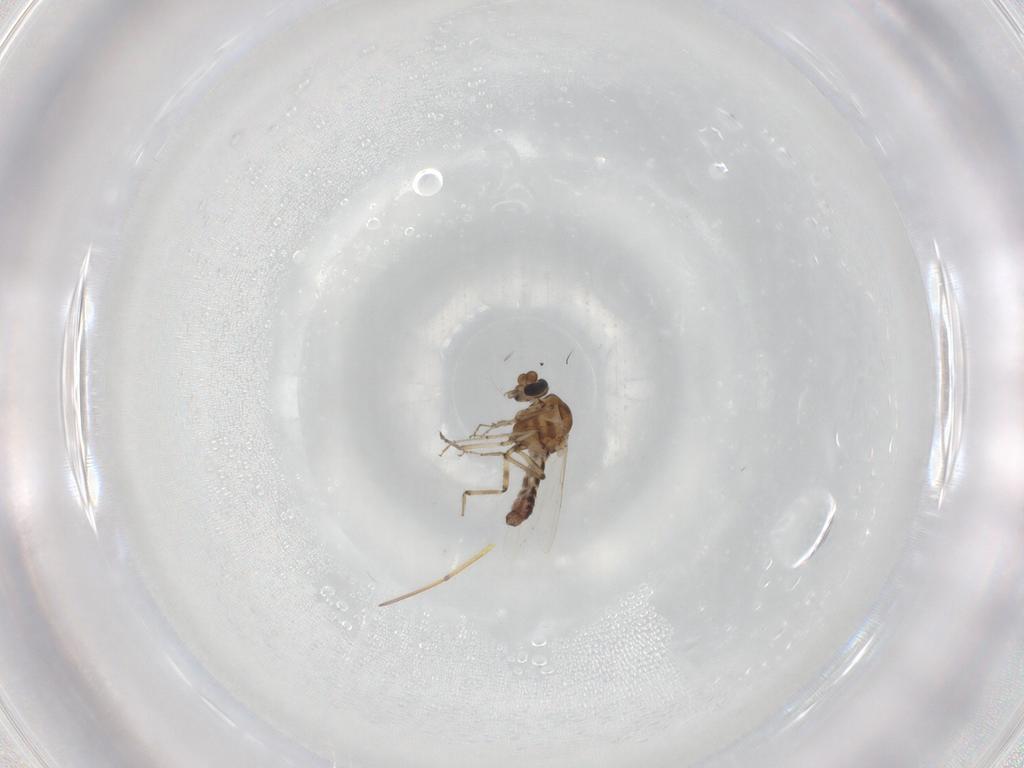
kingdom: Animalia
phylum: Arthropoda
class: Insecta
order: Diptera
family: Ceratopogonidae
